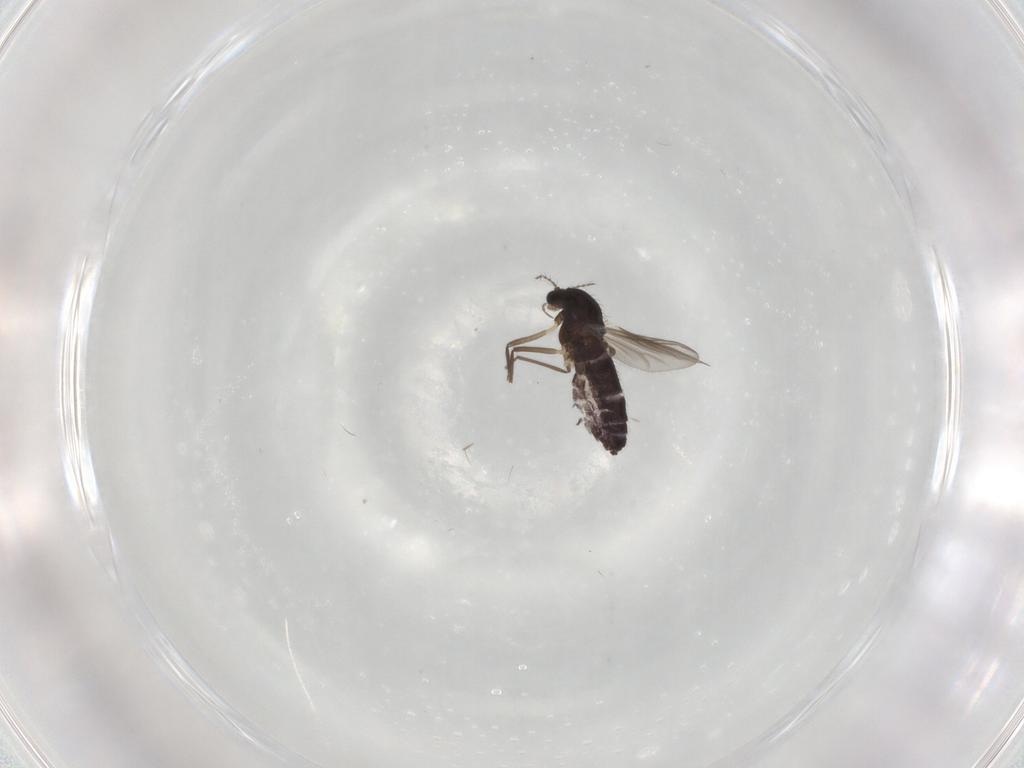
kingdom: Animalia
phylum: Arthropoda
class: Insecta
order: Diptera
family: Chironomidae
